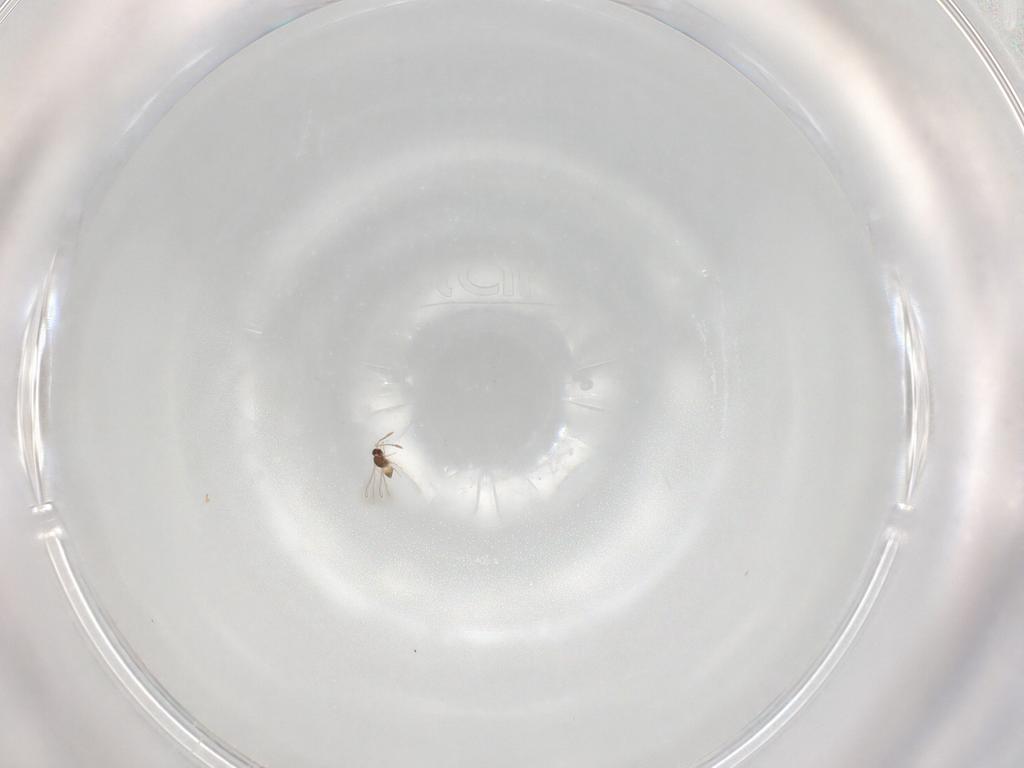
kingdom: Animalia
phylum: Arthropoda
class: Insecta
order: Hymenoptera
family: Mymaridae
